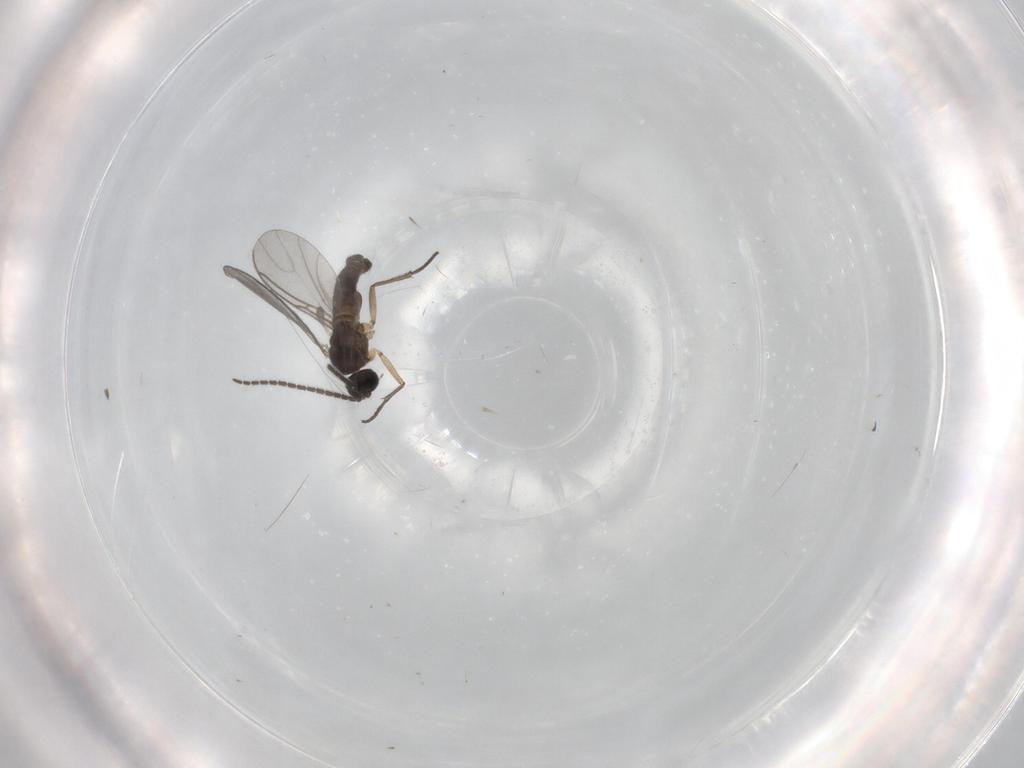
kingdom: Animalia
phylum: Arthropoda
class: Insecta
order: Diptera
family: Sciaridae
